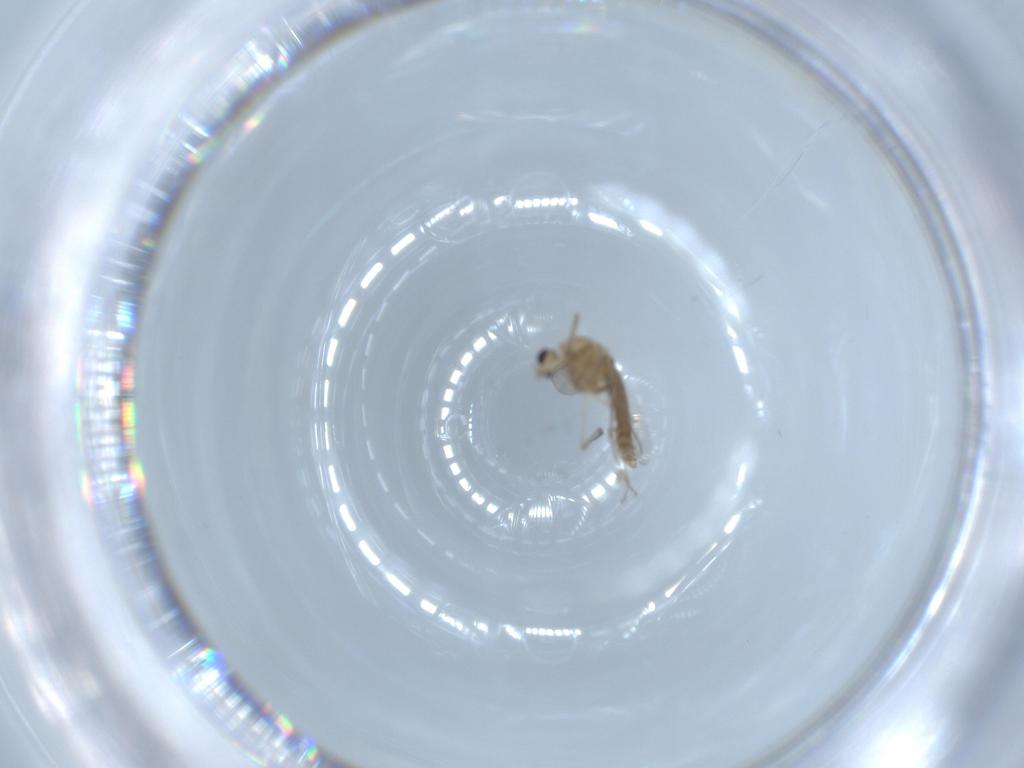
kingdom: Animalia
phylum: Arthropoda
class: Insecta
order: Diptera
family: Chironomidae
